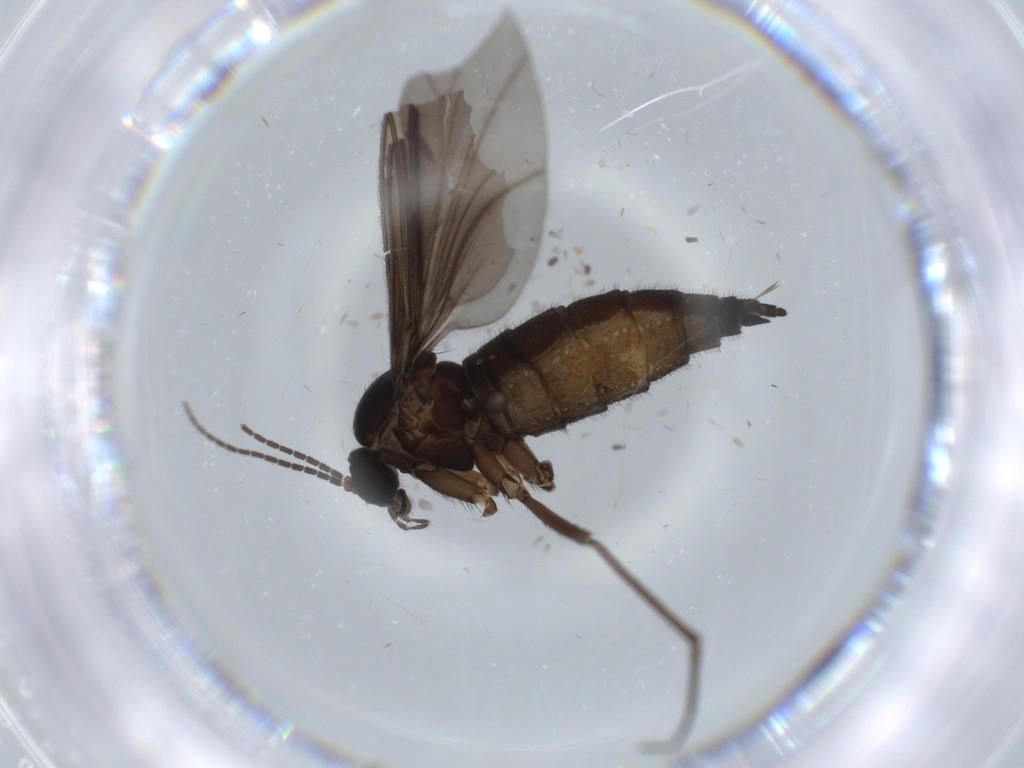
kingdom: Animalia
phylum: Arthropoda
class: Insecta
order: Diptera
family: Sciaridae
